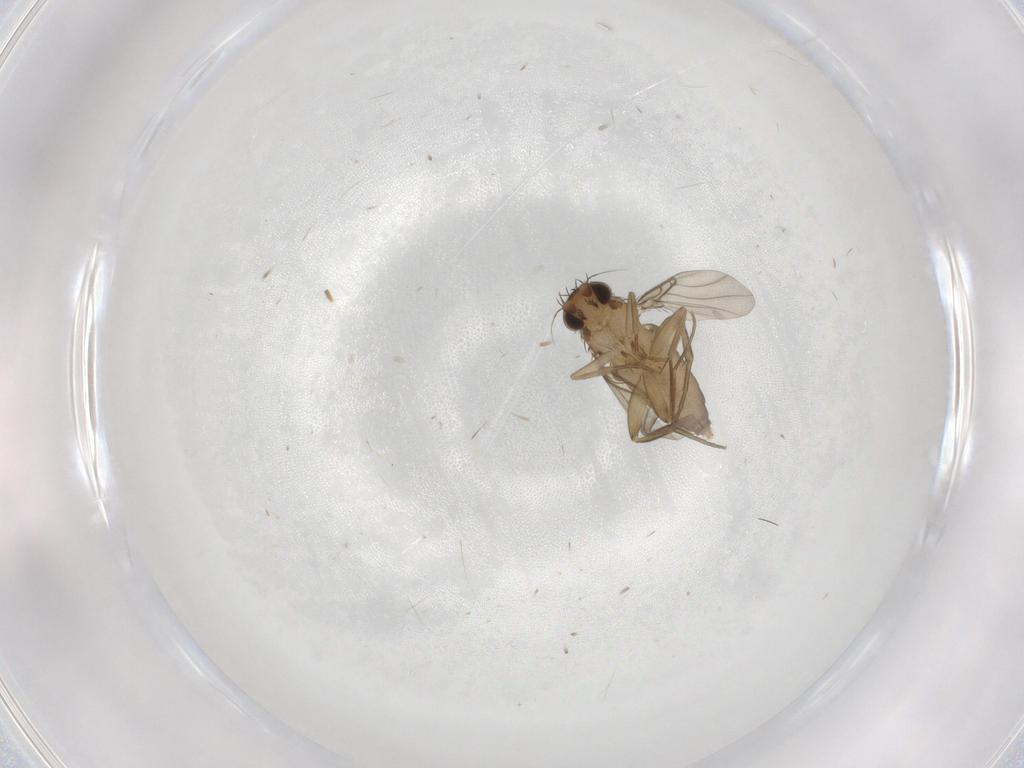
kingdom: Animalia
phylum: Arthropoda
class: Insecta
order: Diptera
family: Phoridae
